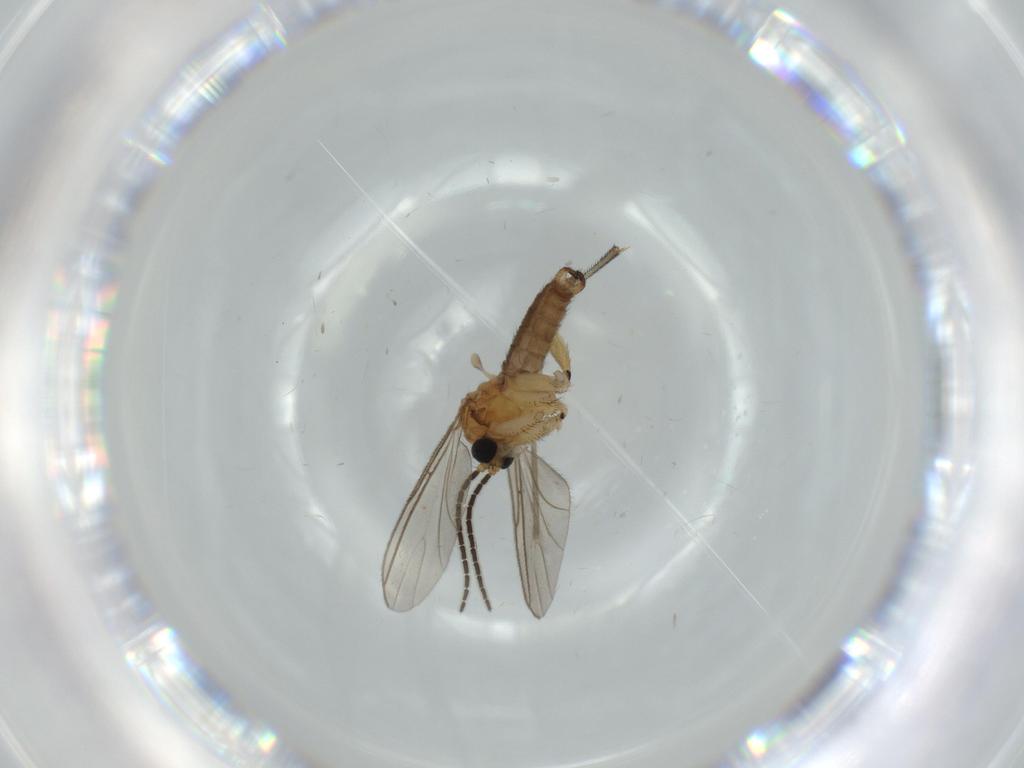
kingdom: Animalia
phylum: Arthropoda
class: Insecta
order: Diptera
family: Sciaridae
